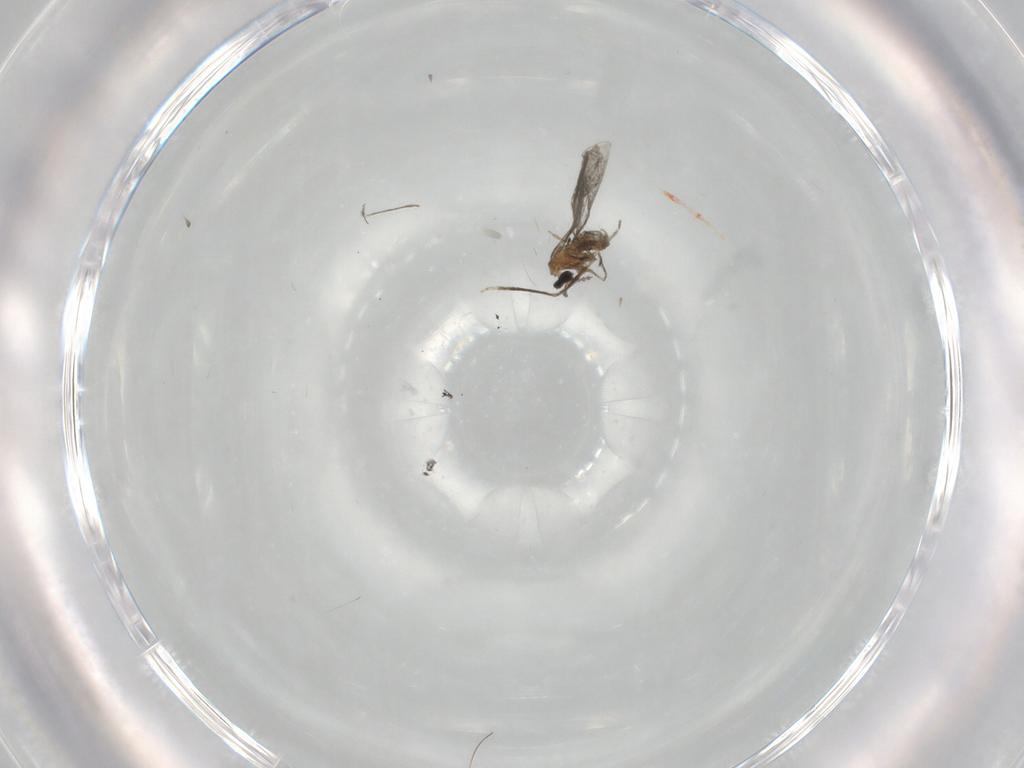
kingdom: Animalia
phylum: Arthropoda
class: Insecta
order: Diptera
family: Cecidomyiidae
